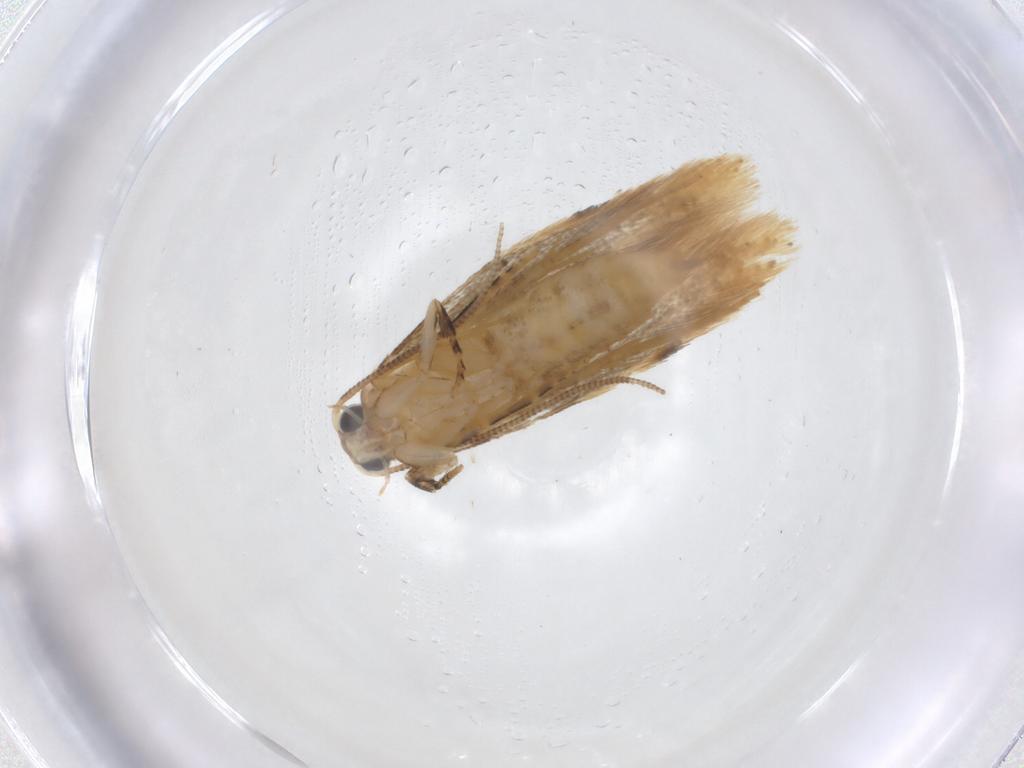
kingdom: Animalia
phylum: Arthropoda
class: Insecta
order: Lepidoptera
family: Tineidae
